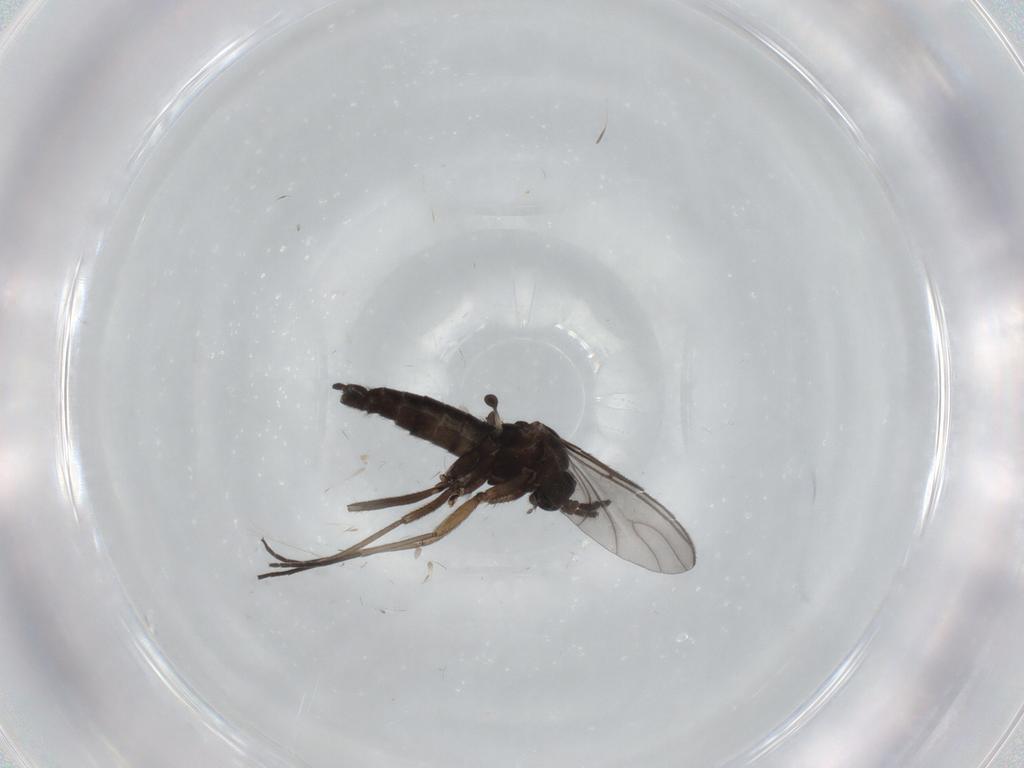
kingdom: Animalia
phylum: Arthropoda
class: Insecta
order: Diptera
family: Sciaridae
